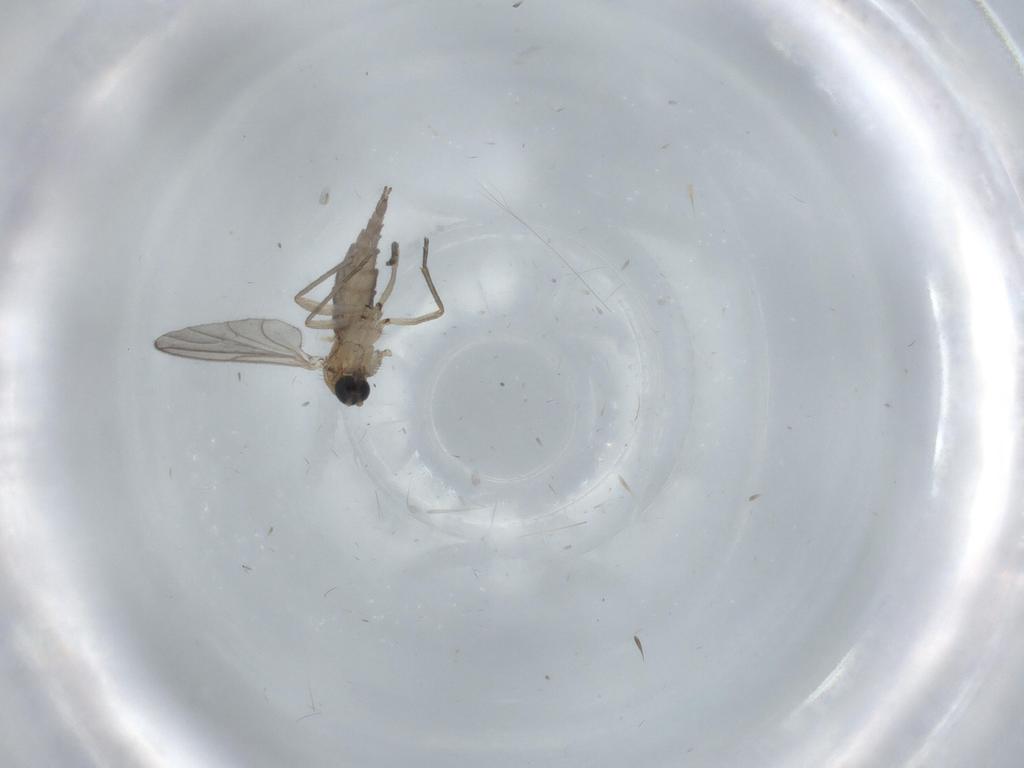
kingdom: Animalia
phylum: Arthropoda
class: Insecta
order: Diptera
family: Sciaridae
